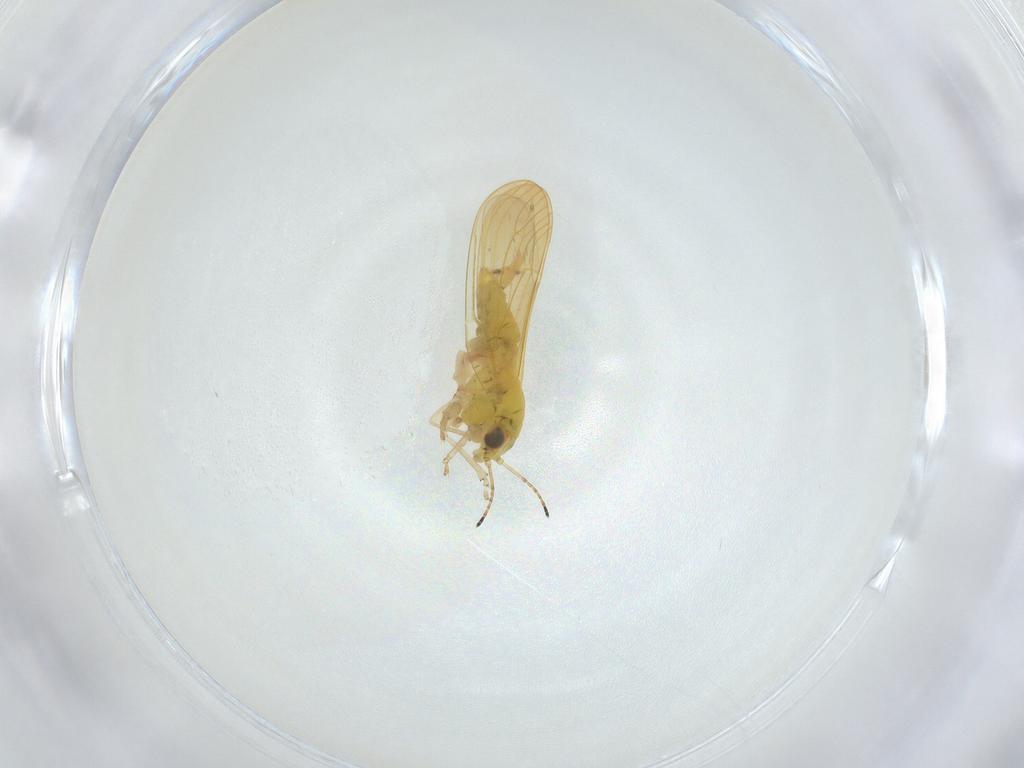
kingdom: Animalia
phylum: Arthropoda
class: Insecta
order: Hemiptera
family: Aphalaridae
